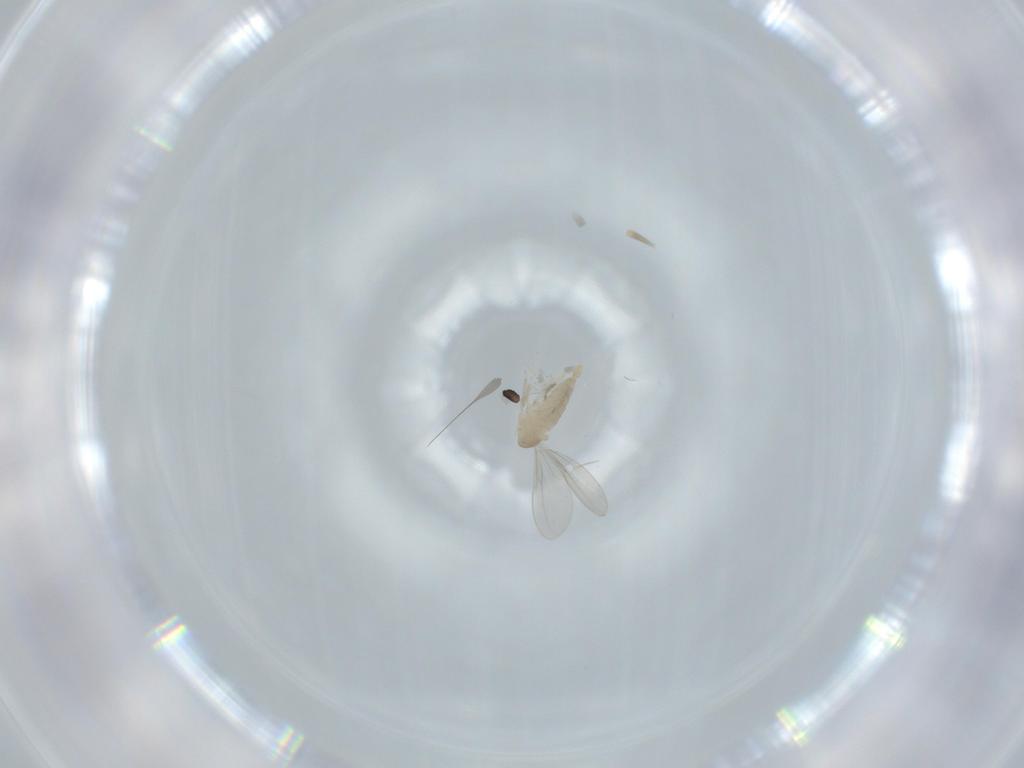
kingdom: Animalia
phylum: Arthropoda
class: Insecta
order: Diptera
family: Cecidomyiidae
